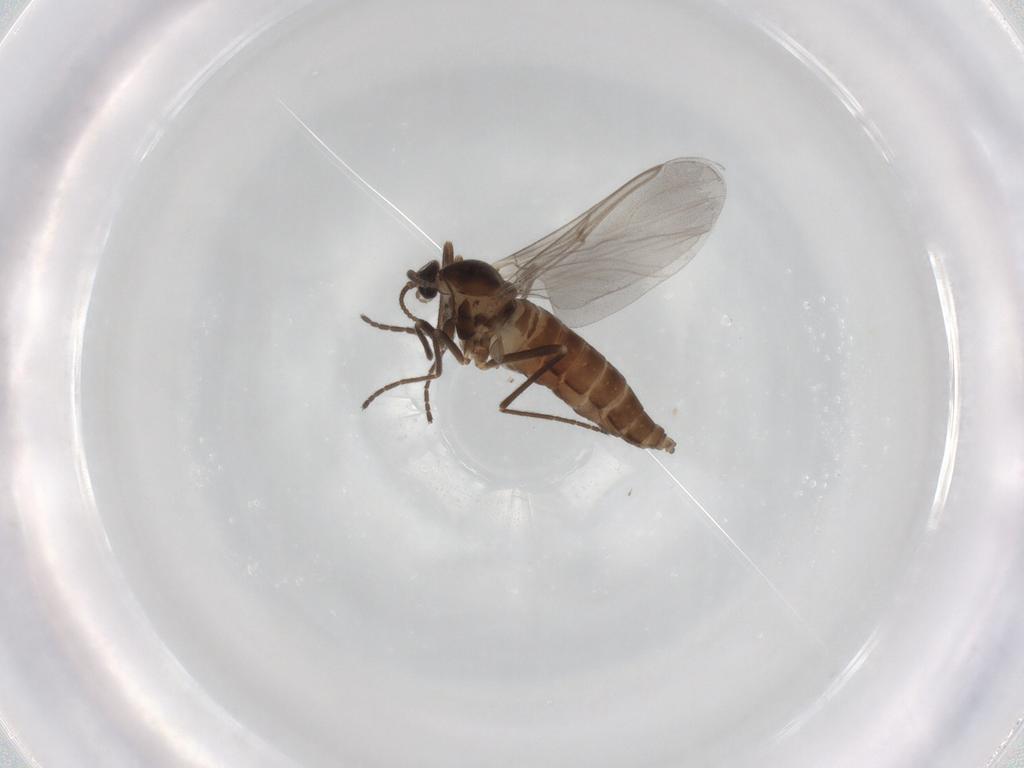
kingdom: Animalia
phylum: Arthropoda
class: Insecta
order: Diptera
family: Cecidomyiidae
